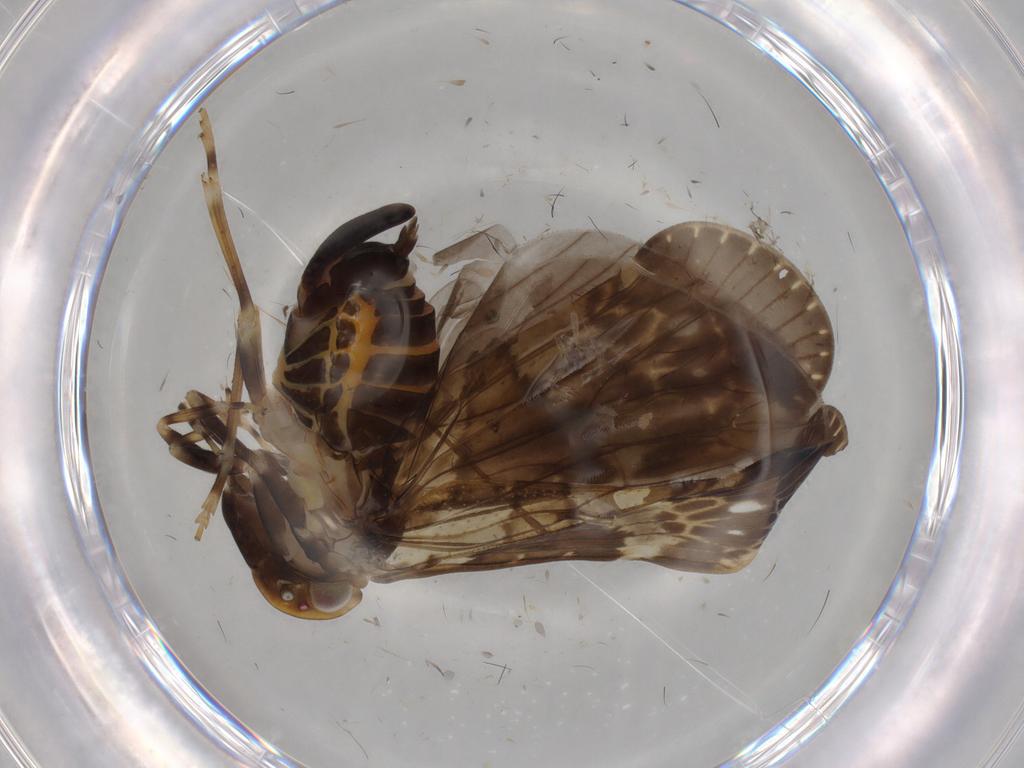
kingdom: Animalia
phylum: Arthropoda
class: Insecta
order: Hemiptera
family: Cixiidae
